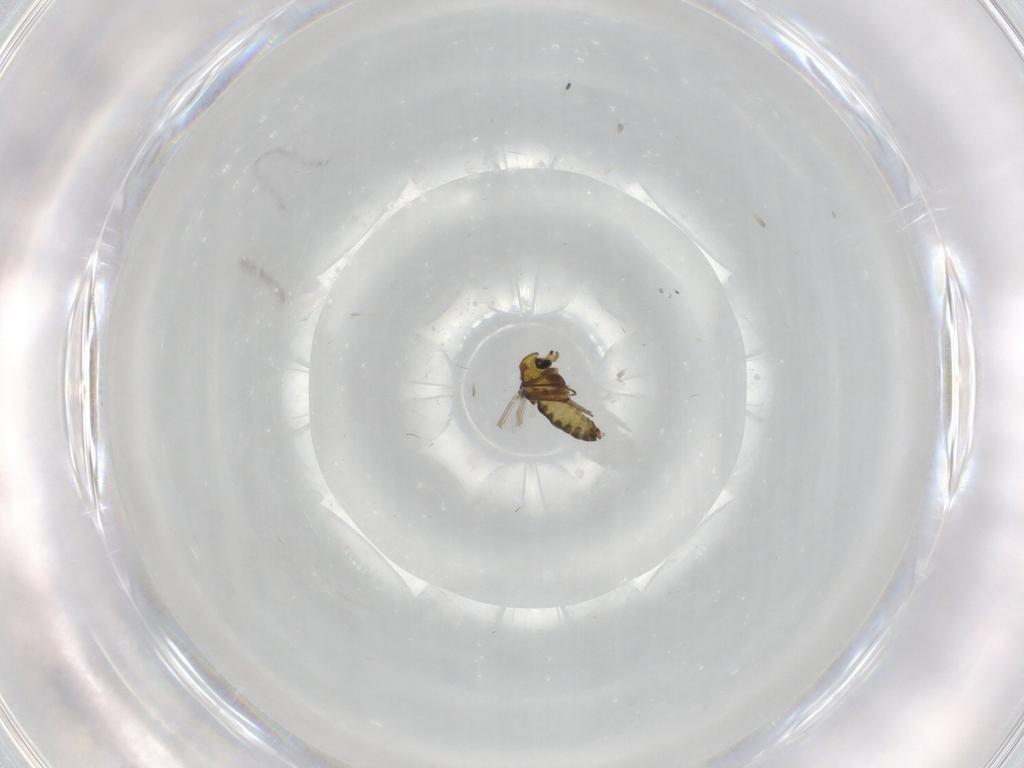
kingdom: Animalia
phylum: Arthropoda
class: Insecta
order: Diptera
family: Chironomidae
